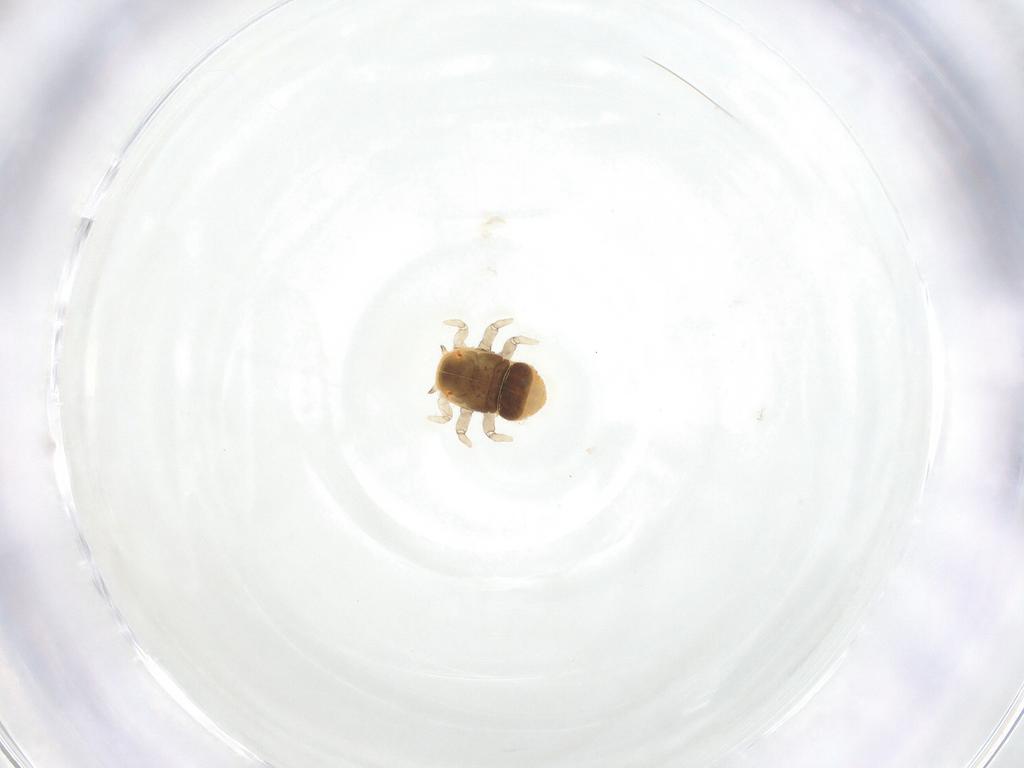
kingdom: Animalia
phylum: Arthropoda
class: Insecta
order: Hemiptera
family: Triozidae
